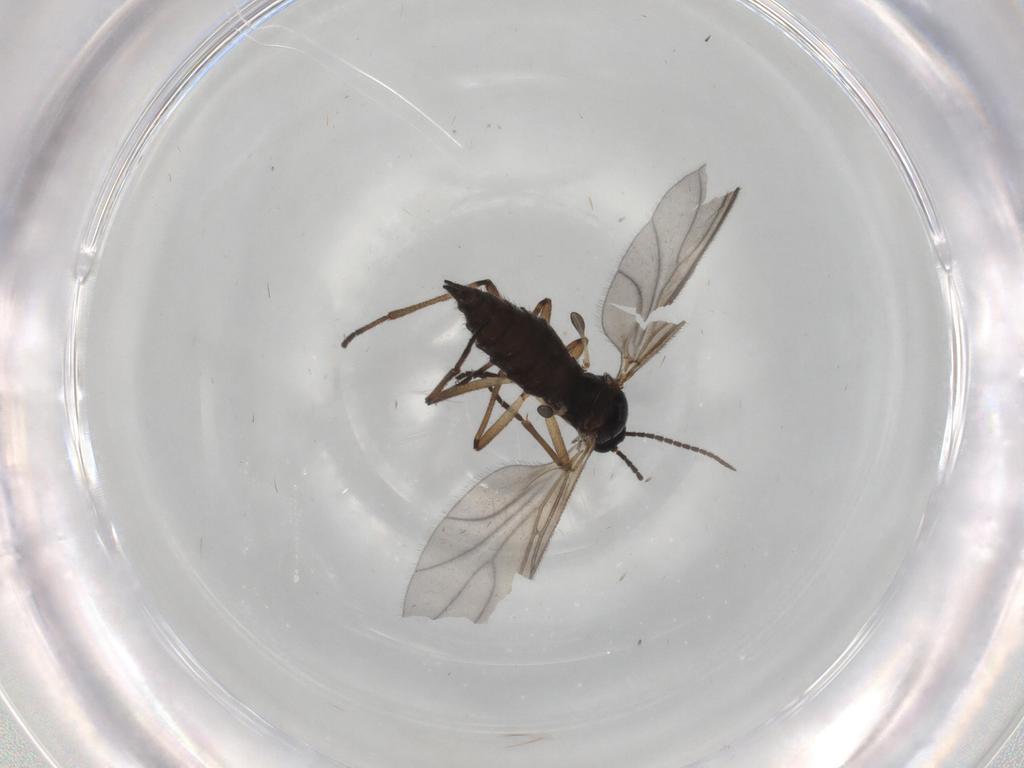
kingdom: Animalia
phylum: Arthropoda
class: Insecta
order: Diptera
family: Sciaridae
